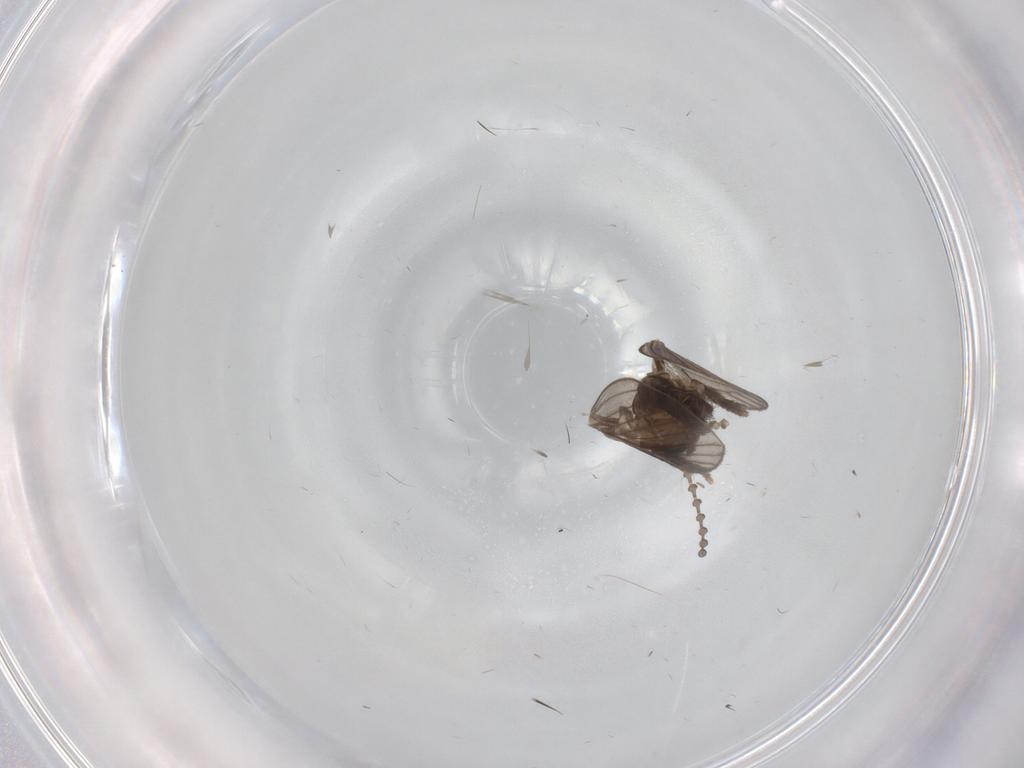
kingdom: Animalia
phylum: Arthropoda
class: Insecta
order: Diptera
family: Psychodidae
